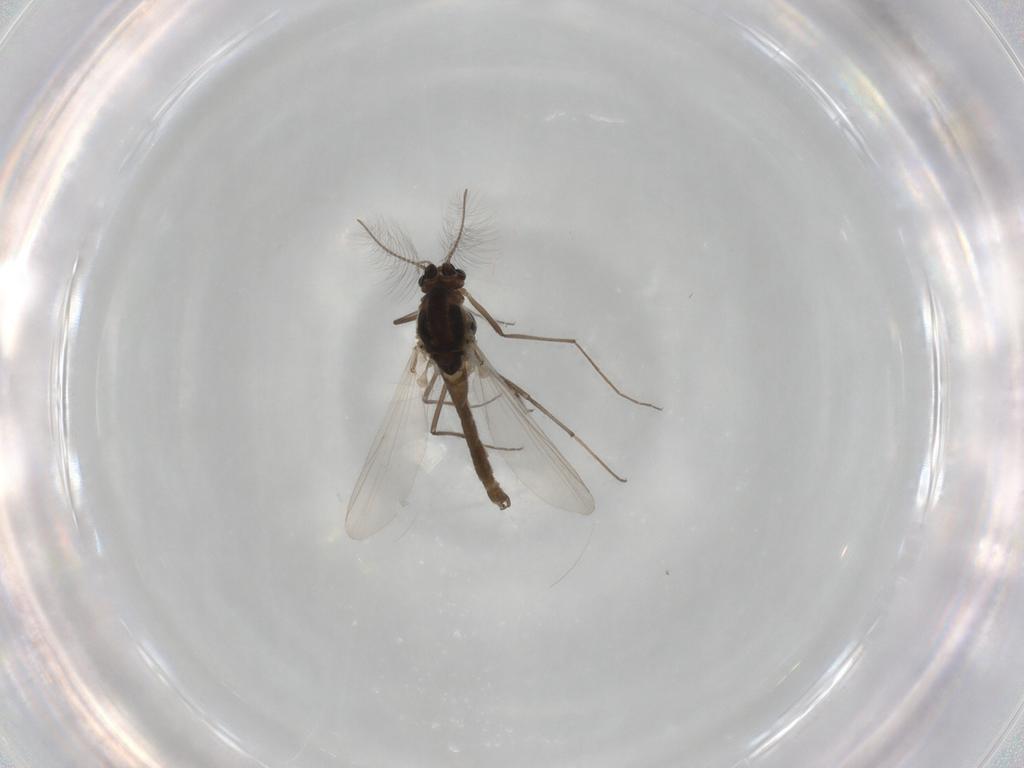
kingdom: Animalia
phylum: Arthropoda
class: Insecta
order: Diptera
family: Chironomidae
